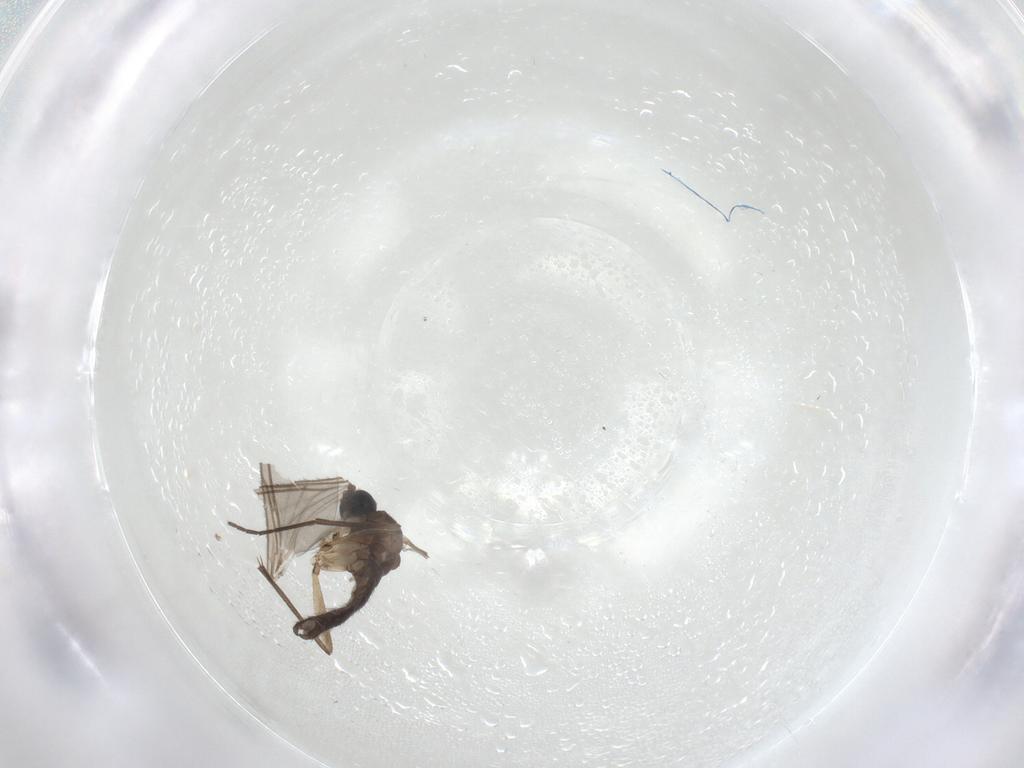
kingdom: Animalia
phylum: Arthropoda
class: Insecta
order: Diptera
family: Sciaridae
